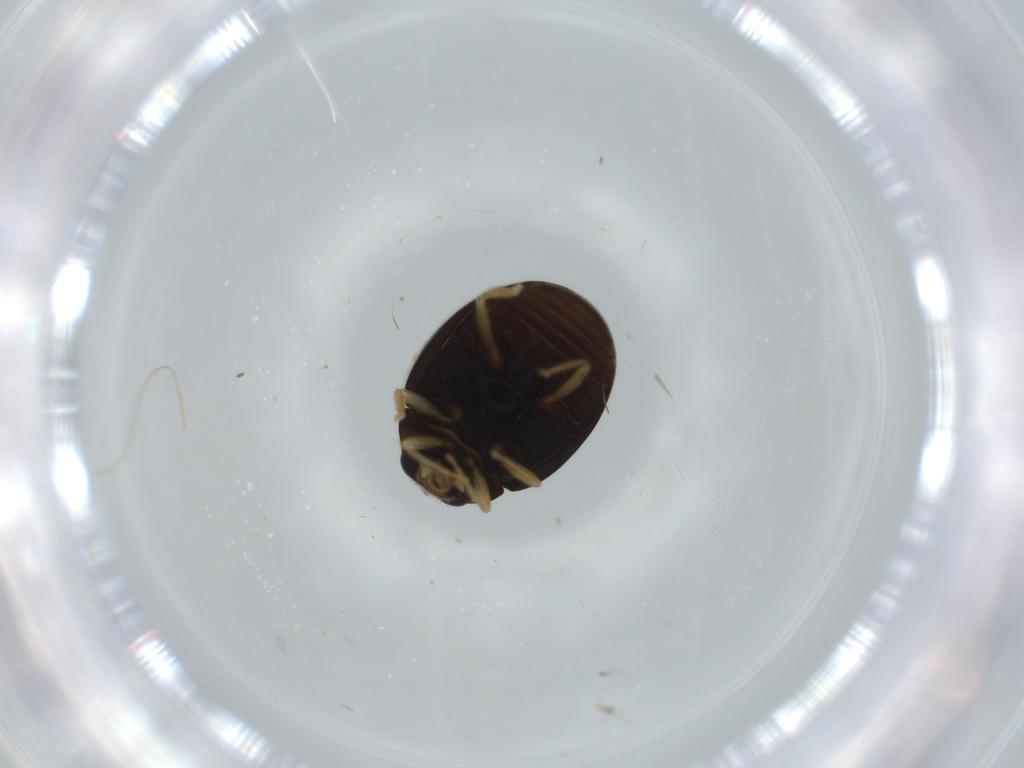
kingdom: Animalia
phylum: Arthropoda
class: Insecta
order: Coleoptera
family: Coccinellidae
